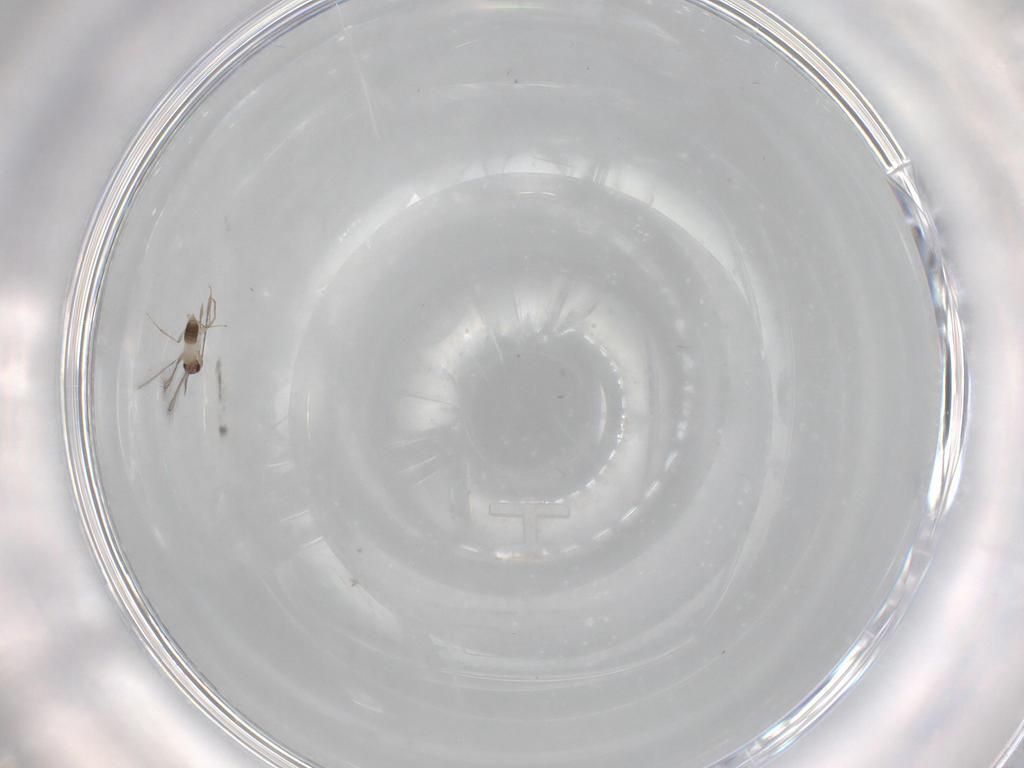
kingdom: Animalia
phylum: Arthropoda
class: Insecta
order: Hymenoptera
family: Mymaridae
